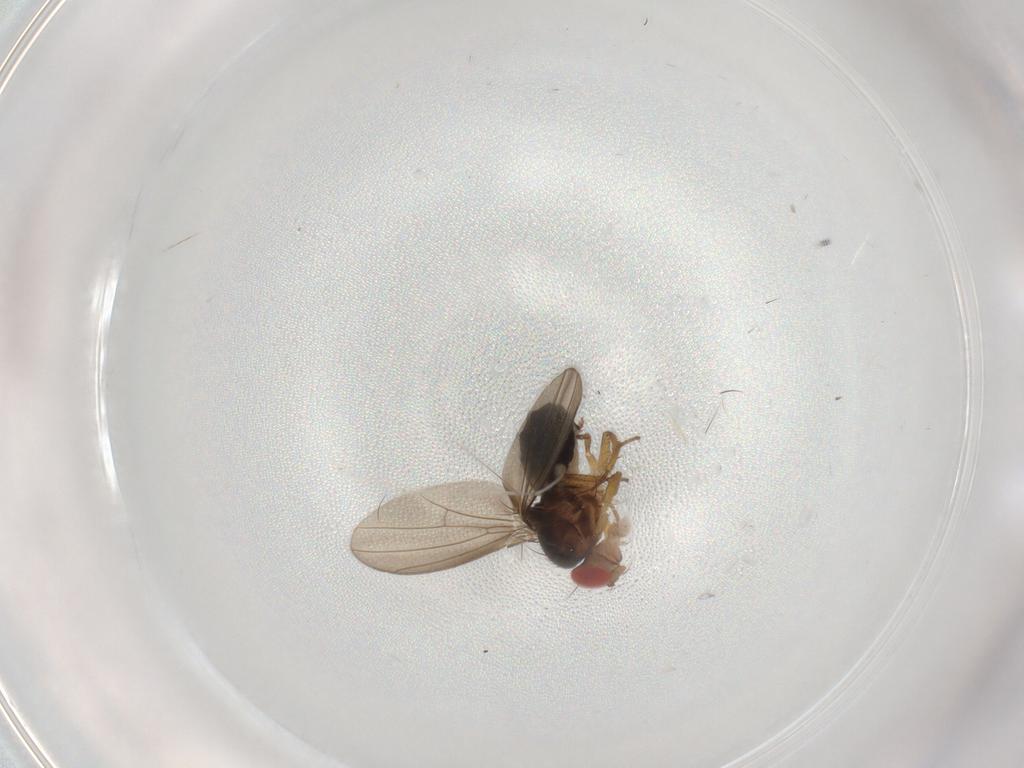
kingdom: Animalia
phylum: Arthropoda
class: Insecta
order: Diptera
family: Drosophilidae
